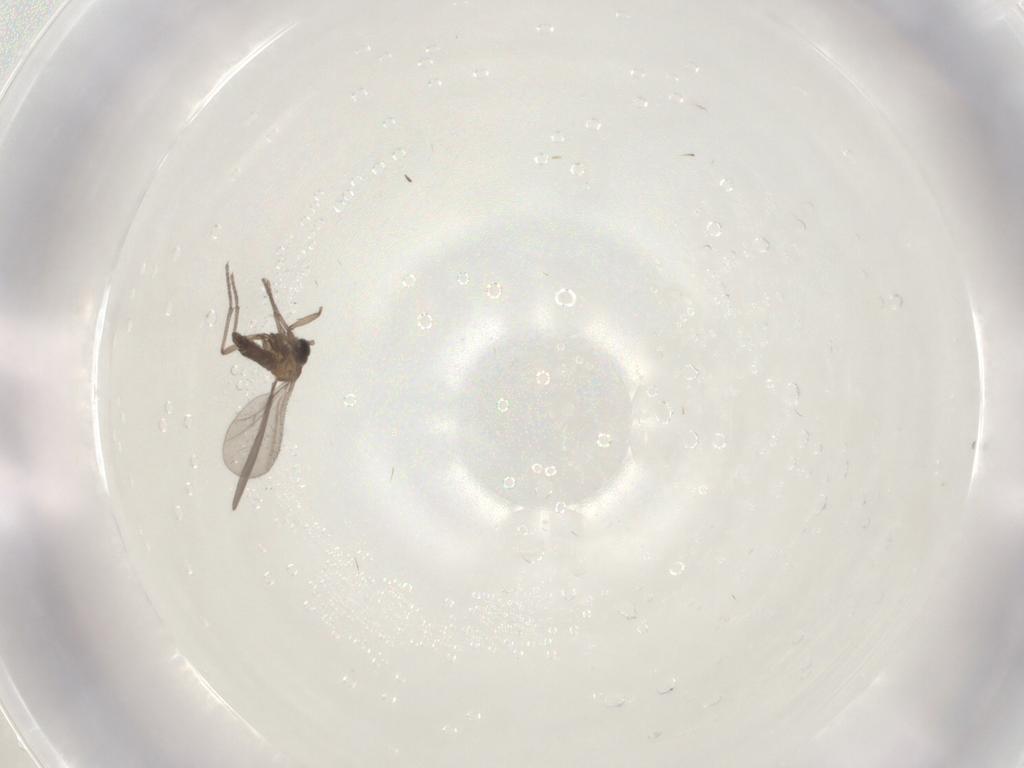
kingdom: Animalia
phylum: Arthropoda
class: Insecta
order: Diptera
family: Sciaridae
